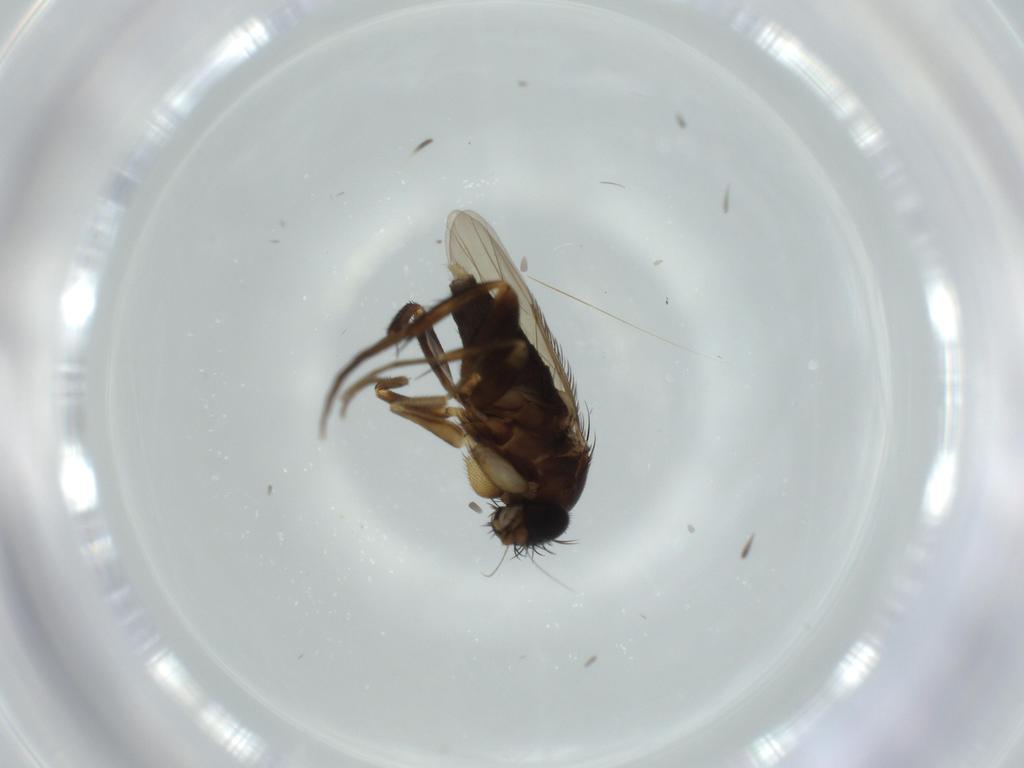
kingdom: Animalia
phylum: Arthropoda
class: Insecta
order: Diptera
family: Phoridae
